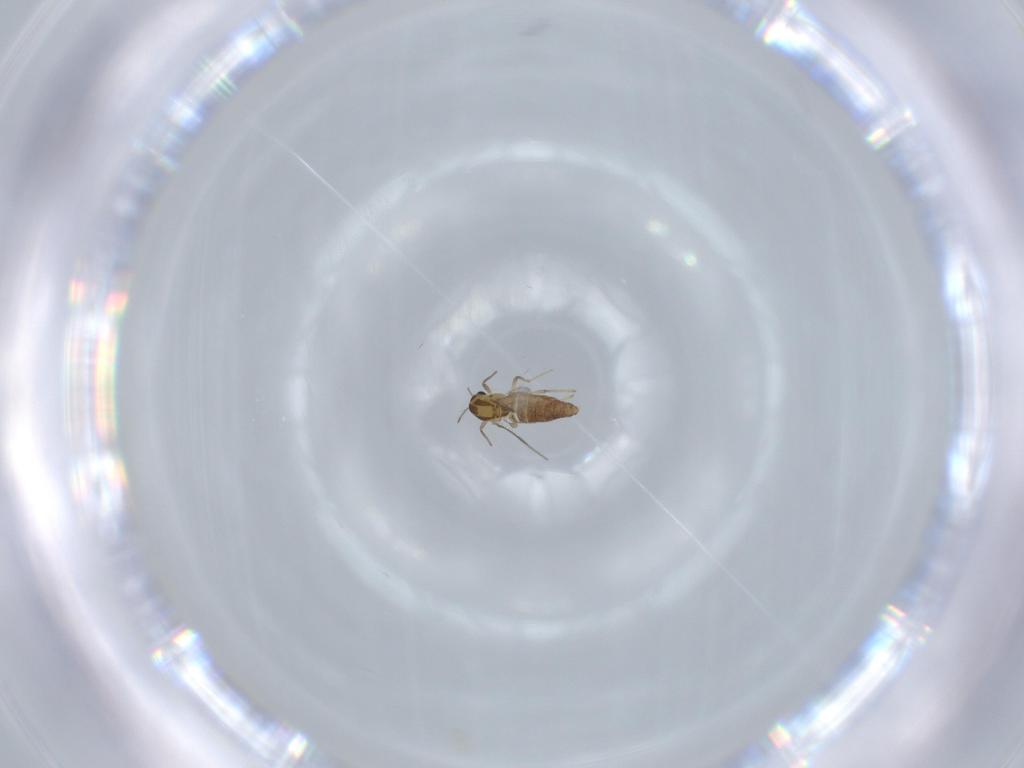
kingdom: Animalia
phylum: Arthropoda
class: Insecta
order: Diptera
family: Chironomidae
